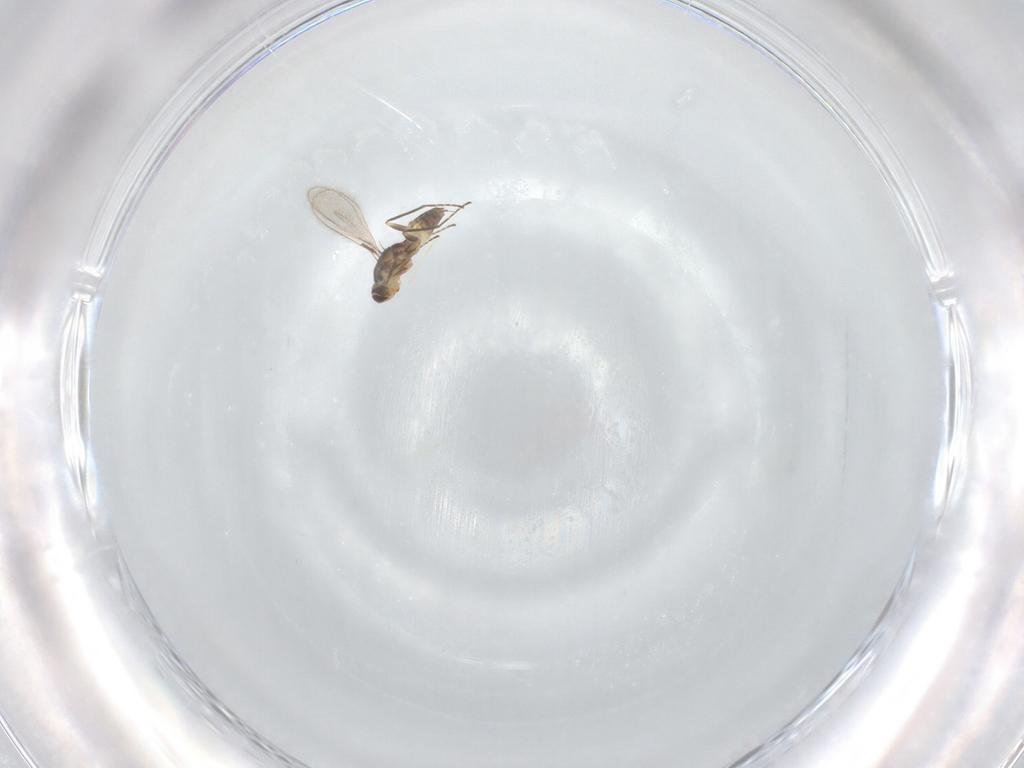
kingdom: Animalia
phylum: Arthropoda
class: Insecta
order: Hymenoptera
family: Mymaridae
